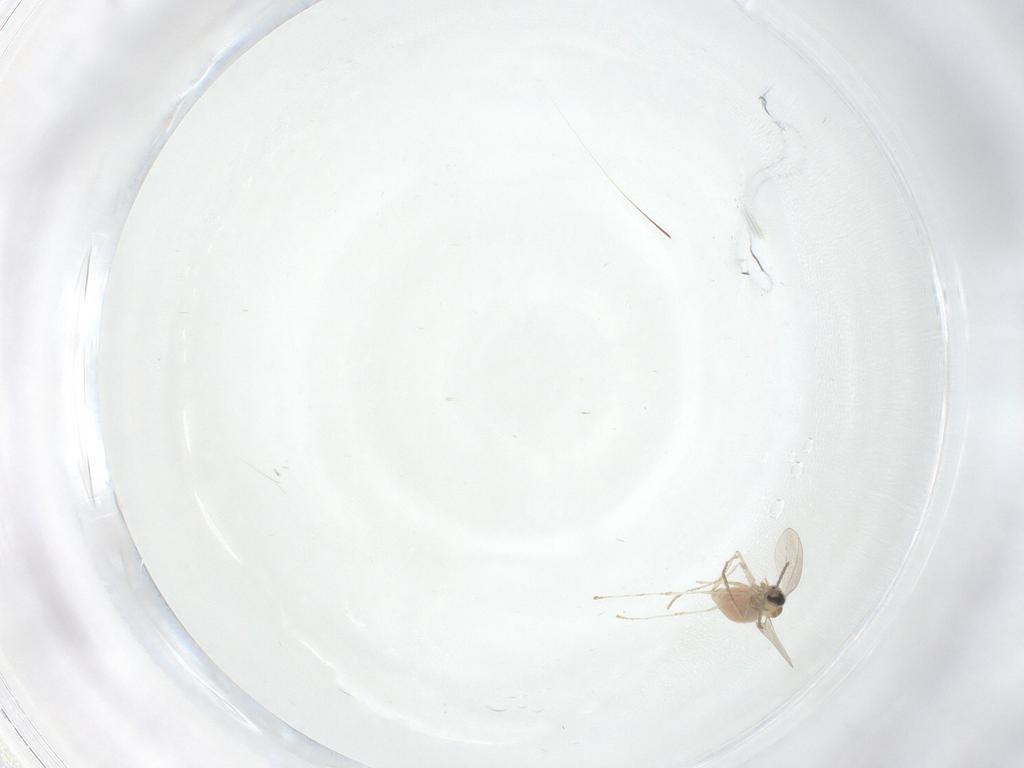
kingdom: Animalia
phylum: Arthropoda
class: Insecta
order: Diptera
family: Cecidomyiidae
